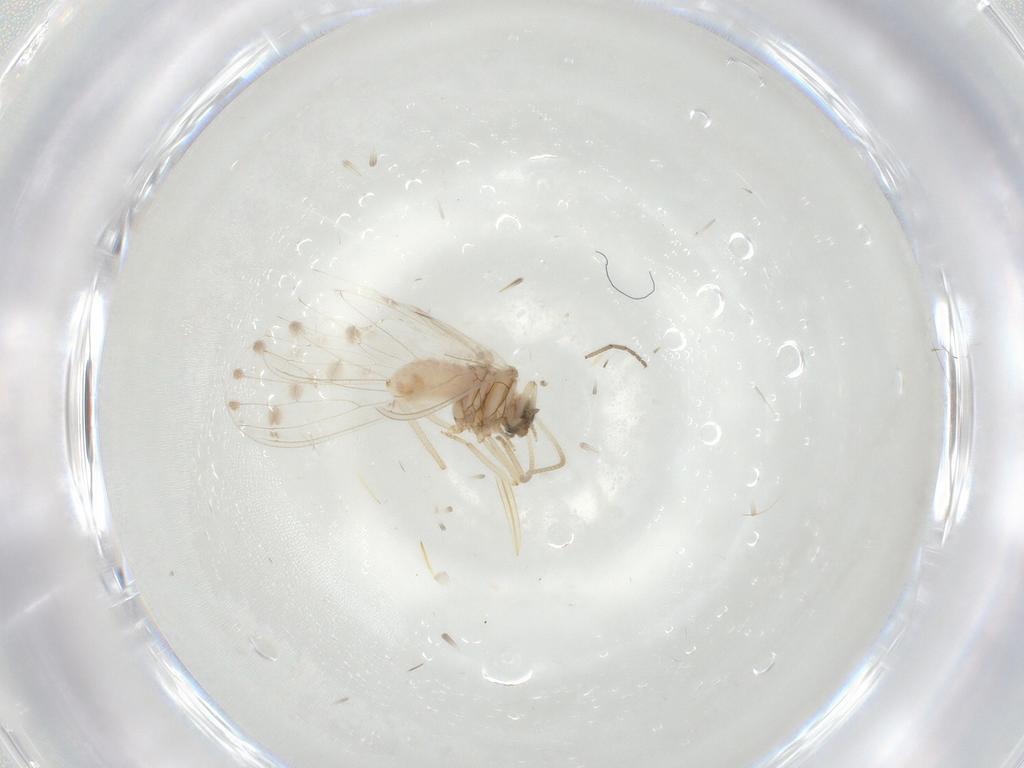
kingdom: Animalia
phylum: Arthropoda
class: Insecta
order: Neuroptera
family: Coniopterygidae
